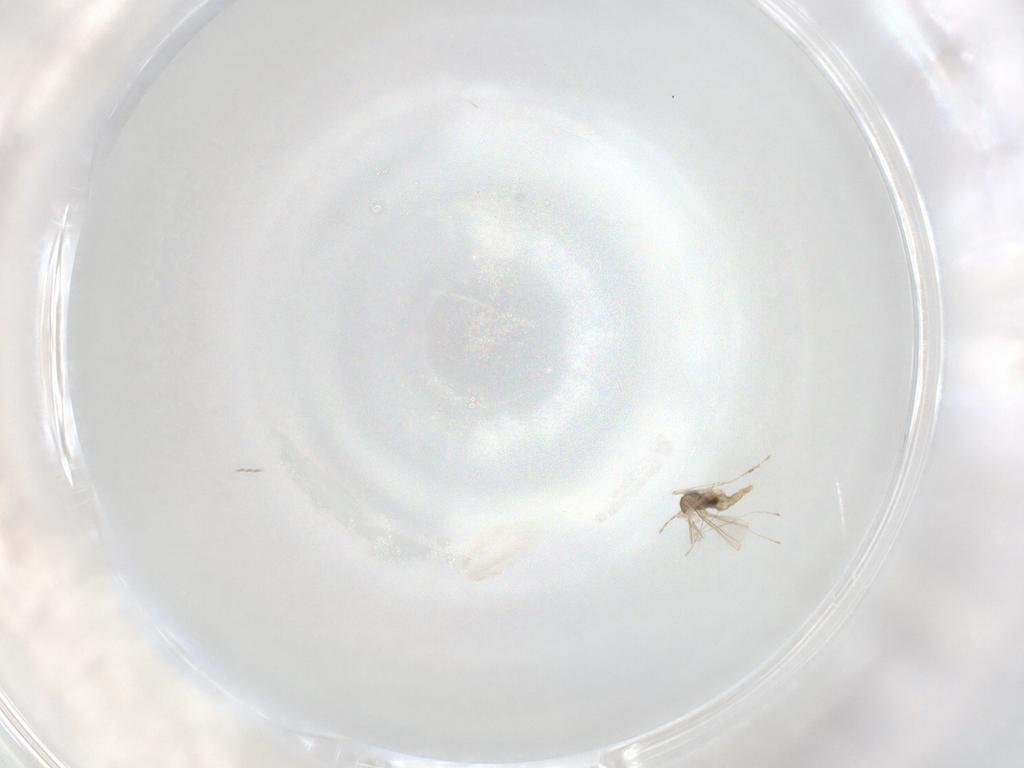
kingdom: Animalia
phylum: Arthropoda
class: Insecta
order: Diptera
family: Cecidomyiidae
